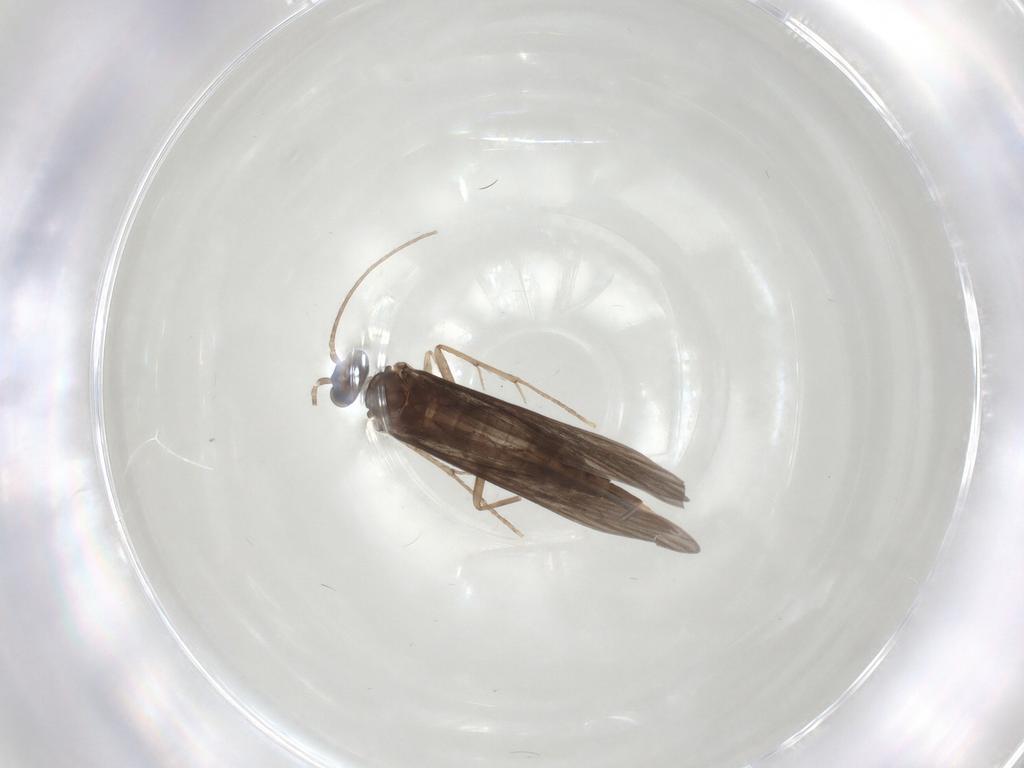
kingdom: Animalia
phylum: Arthropoda
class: Insecta
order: Trichoptera
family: Xiphocentronidae
